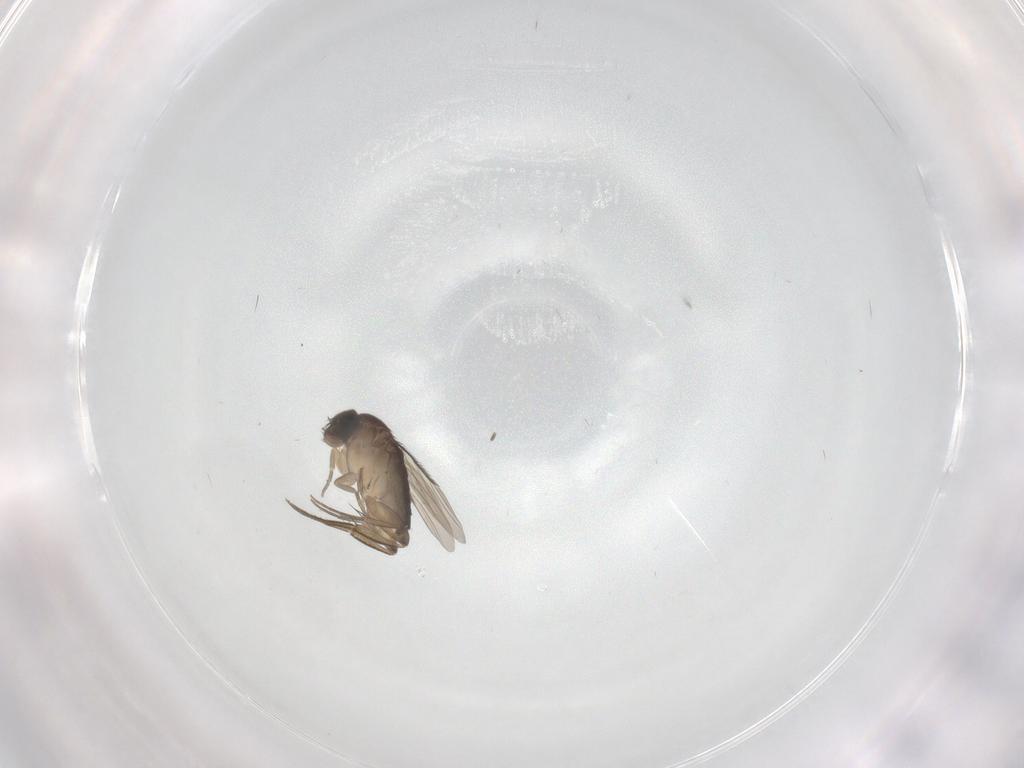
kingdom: Animalia
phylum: Arthropoda
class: Insecta
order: Diptera
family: Phoridae
